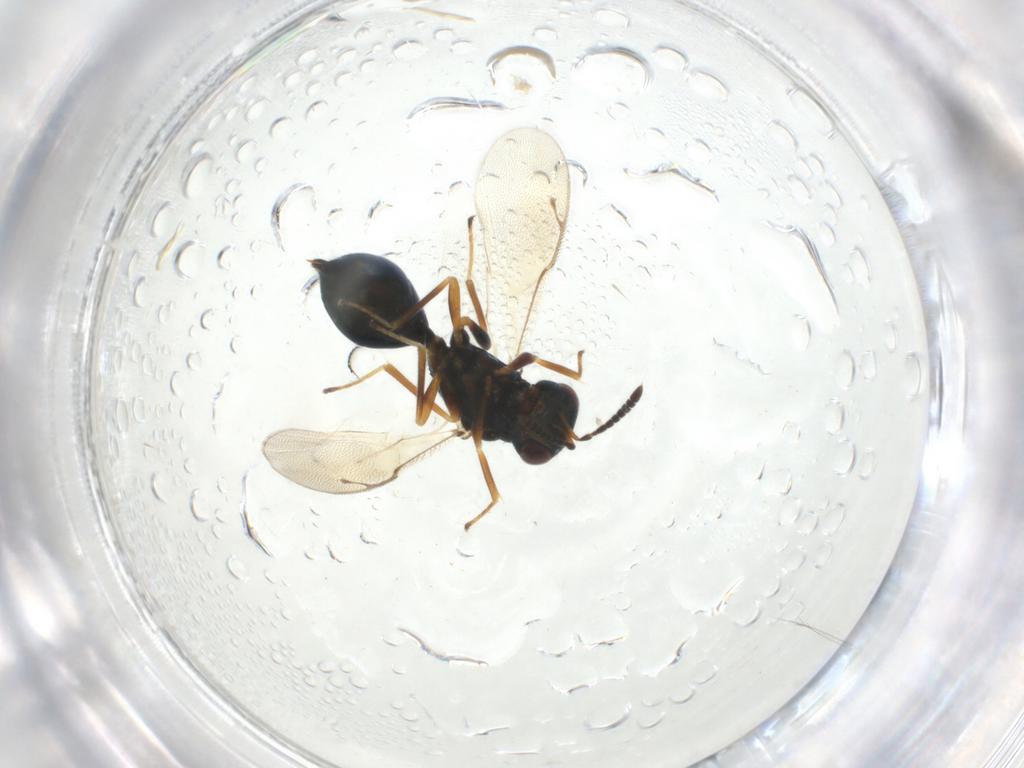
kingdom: Animalia
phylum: Arthropoda
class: Insecta
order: Hymenoptera
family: Pteromalidae
